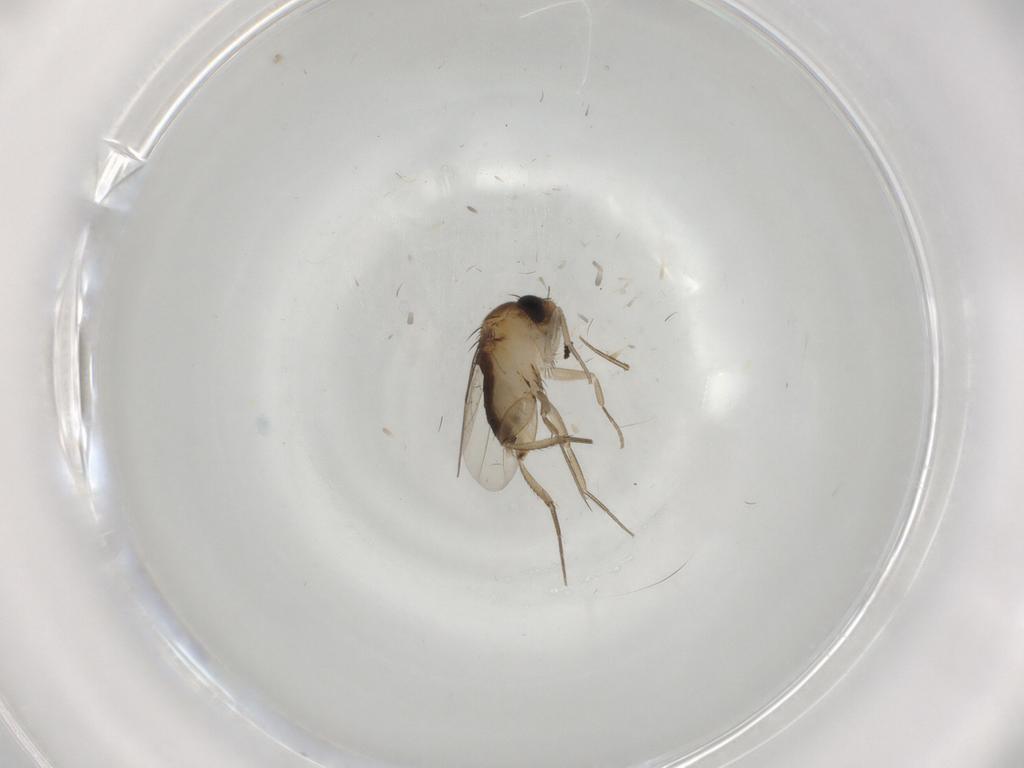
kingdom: Animalia
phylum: Arthropoda
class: Insecta
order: Diptera
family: Phoridae
